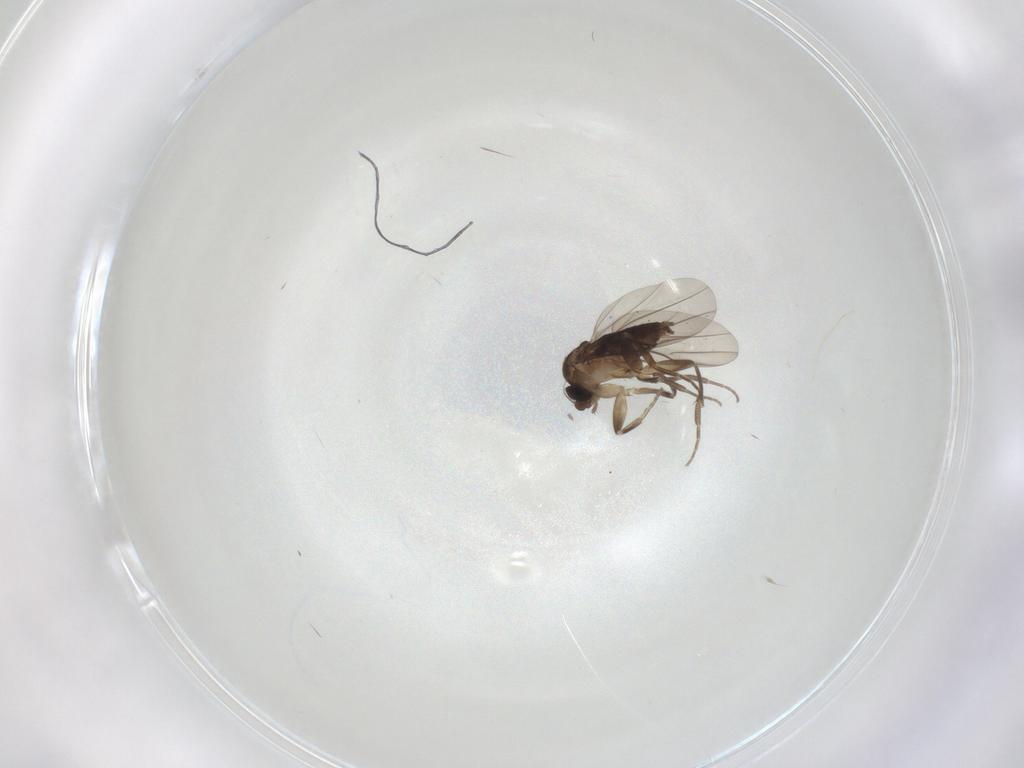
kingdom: Animalia
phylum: Arthropoda
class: Insecta
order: Diptera
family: Phoridae
